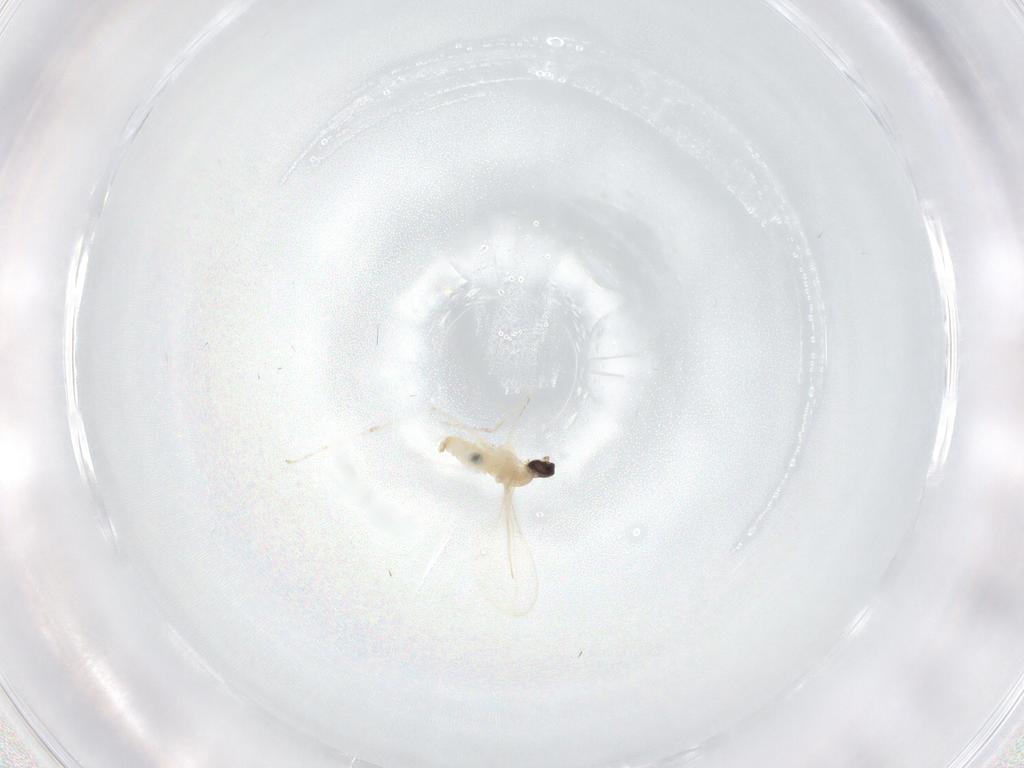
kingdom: Animalia
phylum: Arthropoda
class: Insecta
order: Diptera
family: Cecidomyiidae
